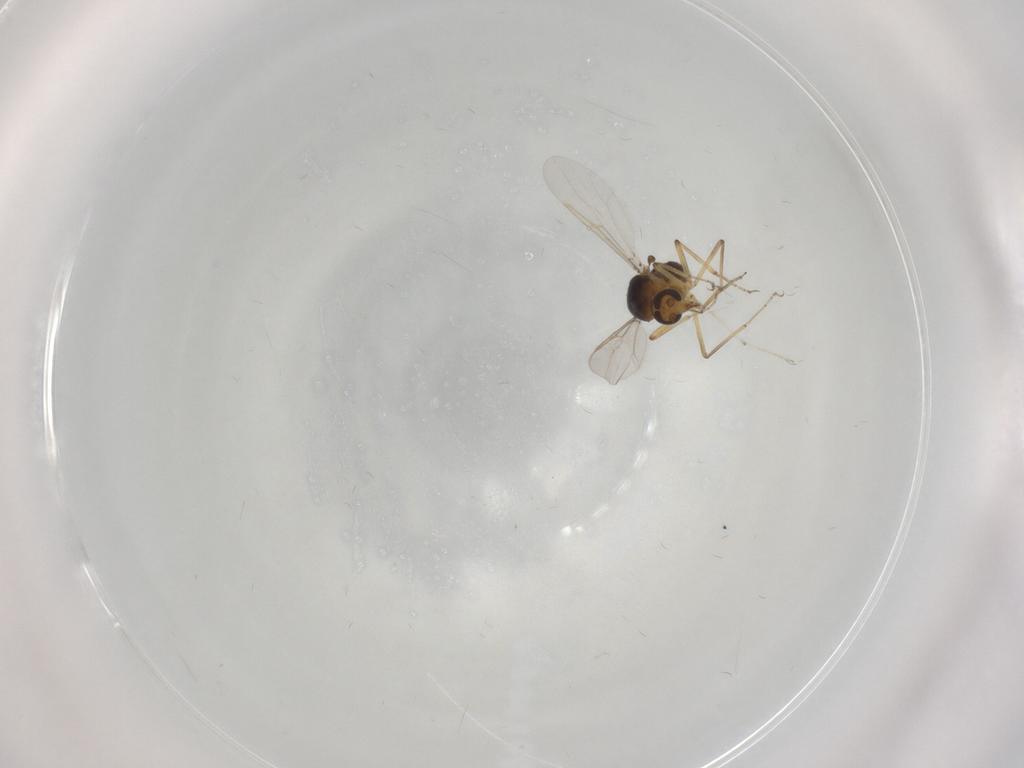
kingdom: Animalia
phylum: Arthropoda
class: Insecta
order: Diptera
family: Ceratopogonidae
